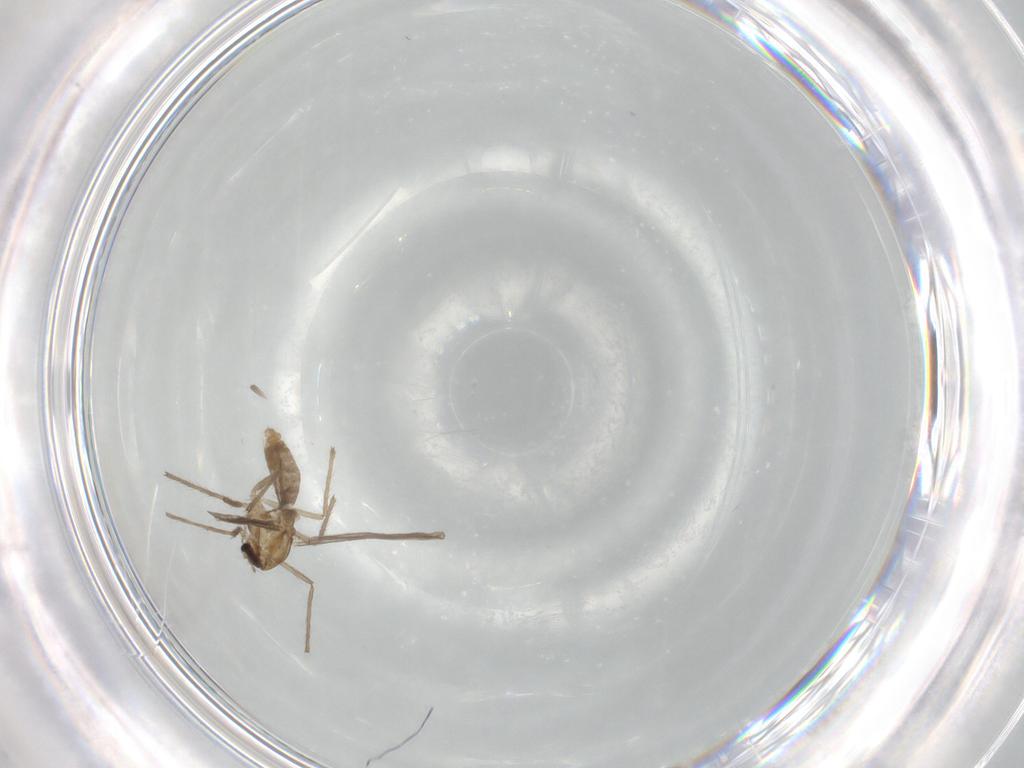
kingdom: Animalia
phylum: Arthropoda
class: Insecta
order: Diptera
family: Chironomidae
